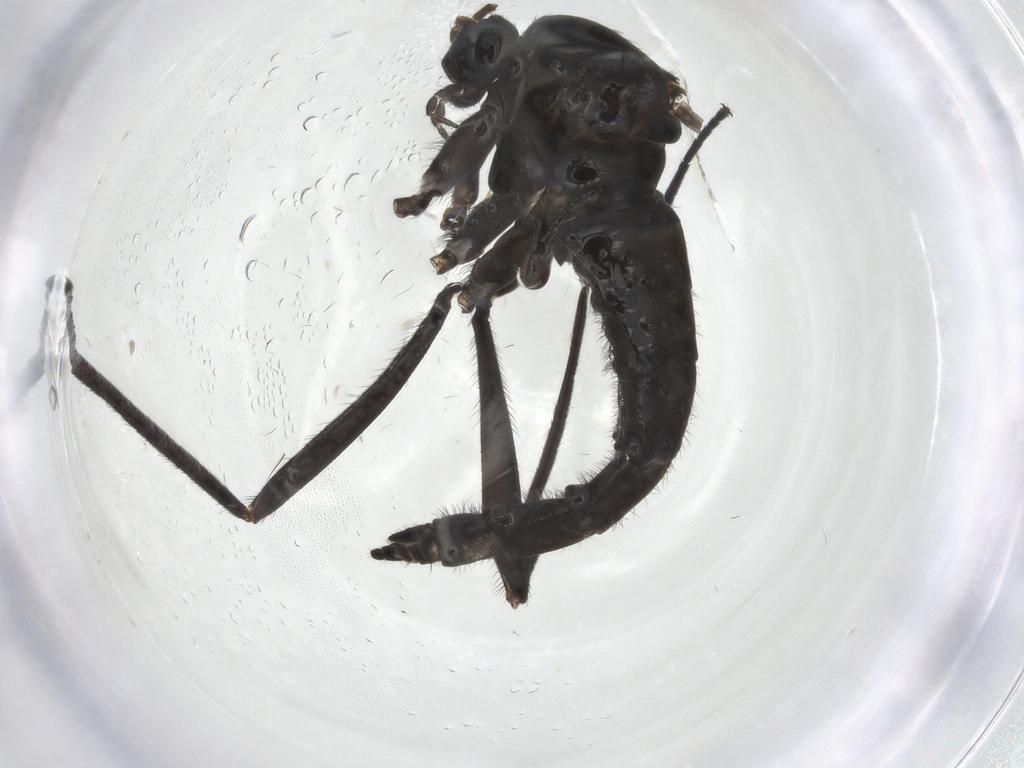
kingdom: Animalia
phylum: Arthropoda
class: Insecta
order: Diptera
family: Sciaridae
